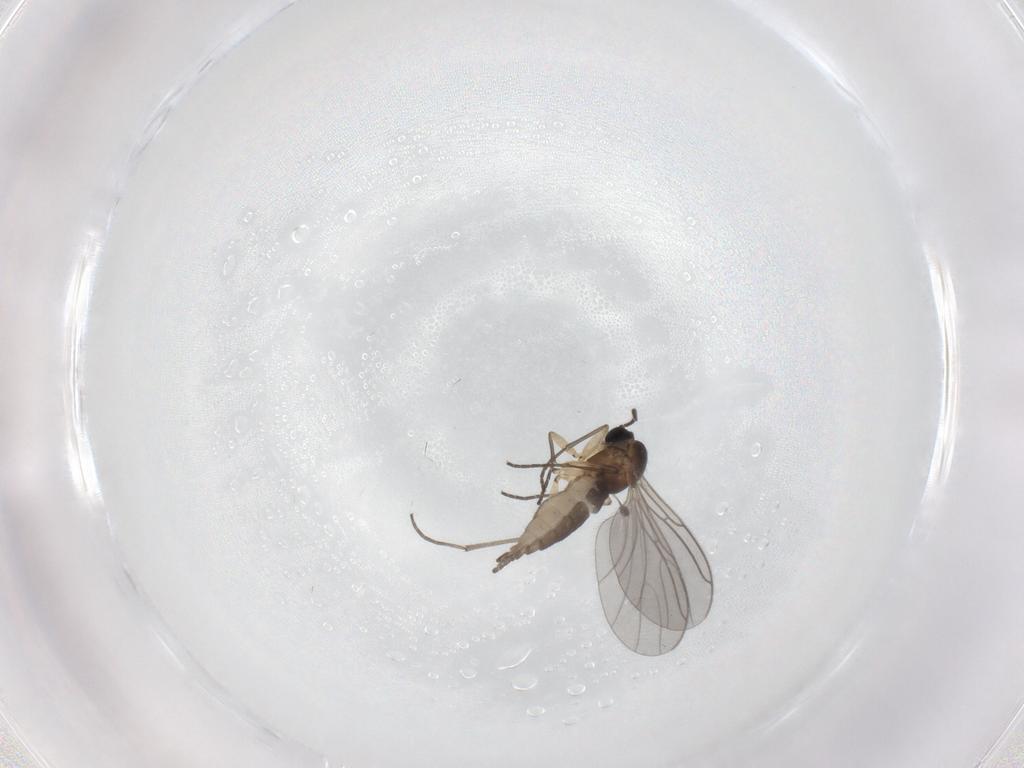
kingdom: Animalia
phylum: Arthropoda
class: Insecta
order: Diptera
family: Sciaridae
